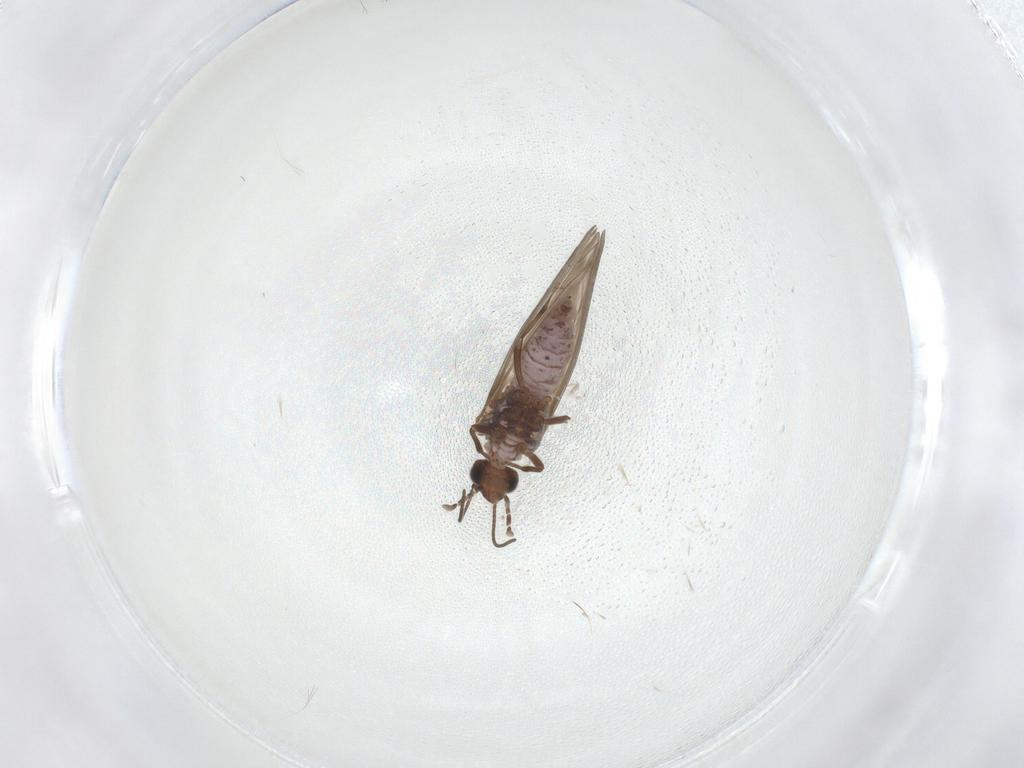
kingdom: Animalia
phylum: Arthropoda
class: Insecta
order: Neuroptera
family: Coniopterygidae
